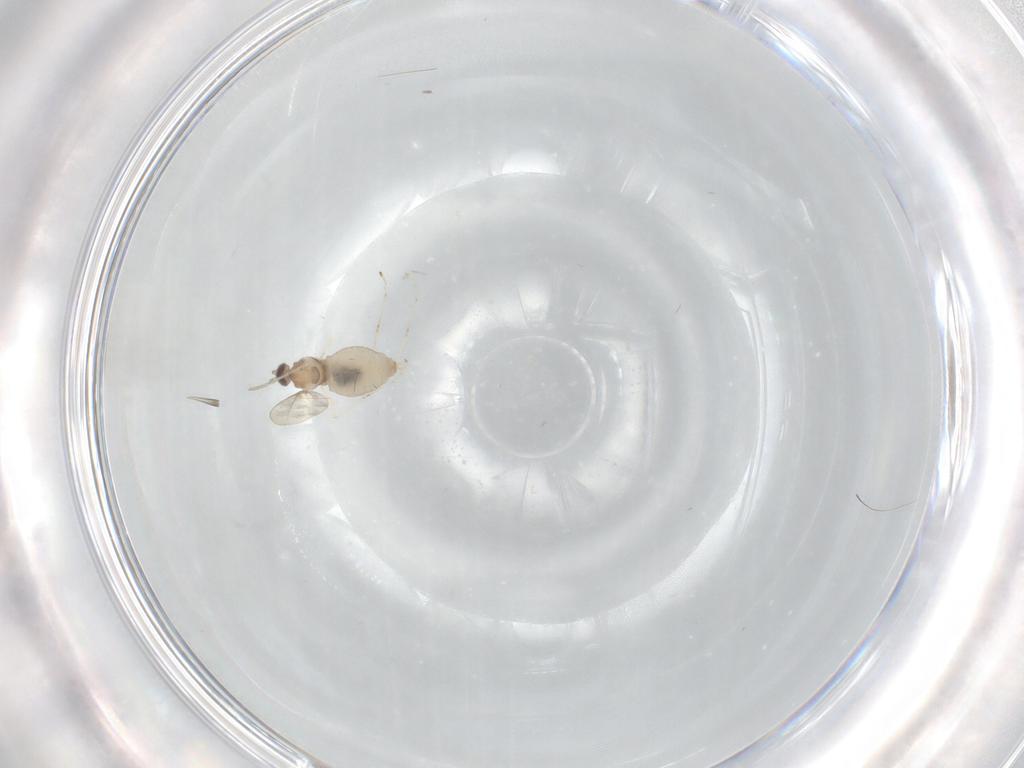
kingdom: Animalia
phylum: Arthropoda
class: Insecta
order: Diptera
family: Cecidomyiidae
